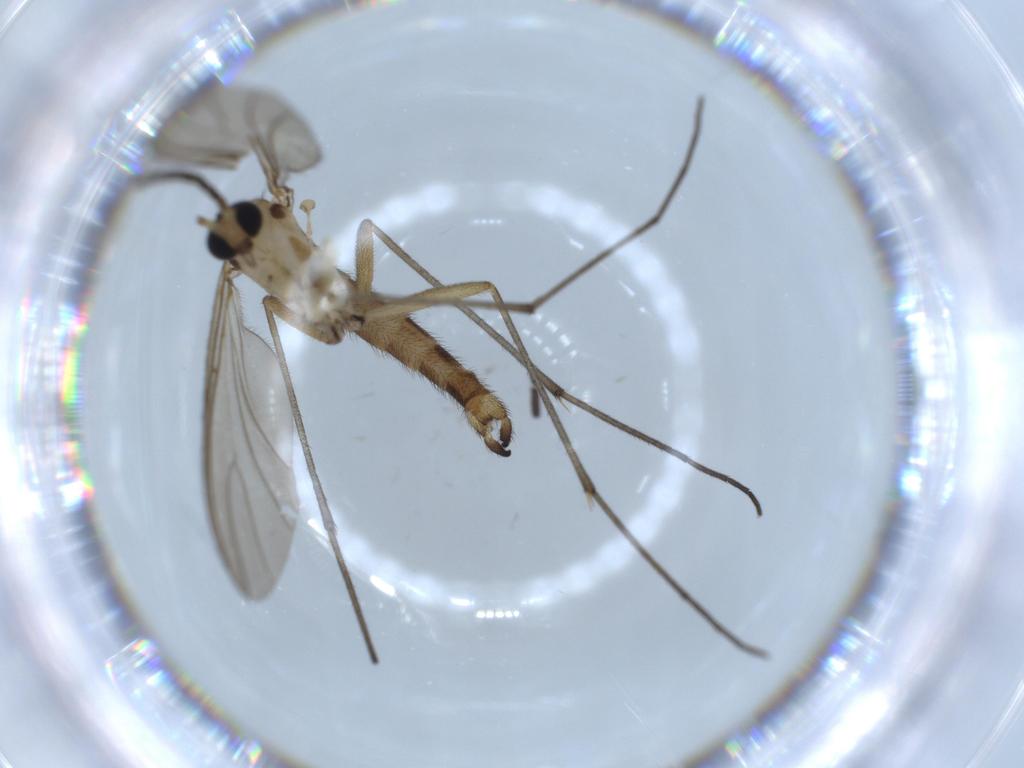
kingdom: Animalia
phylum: Arthropoda
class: Insecta
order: Diptera
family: Sciaridae
